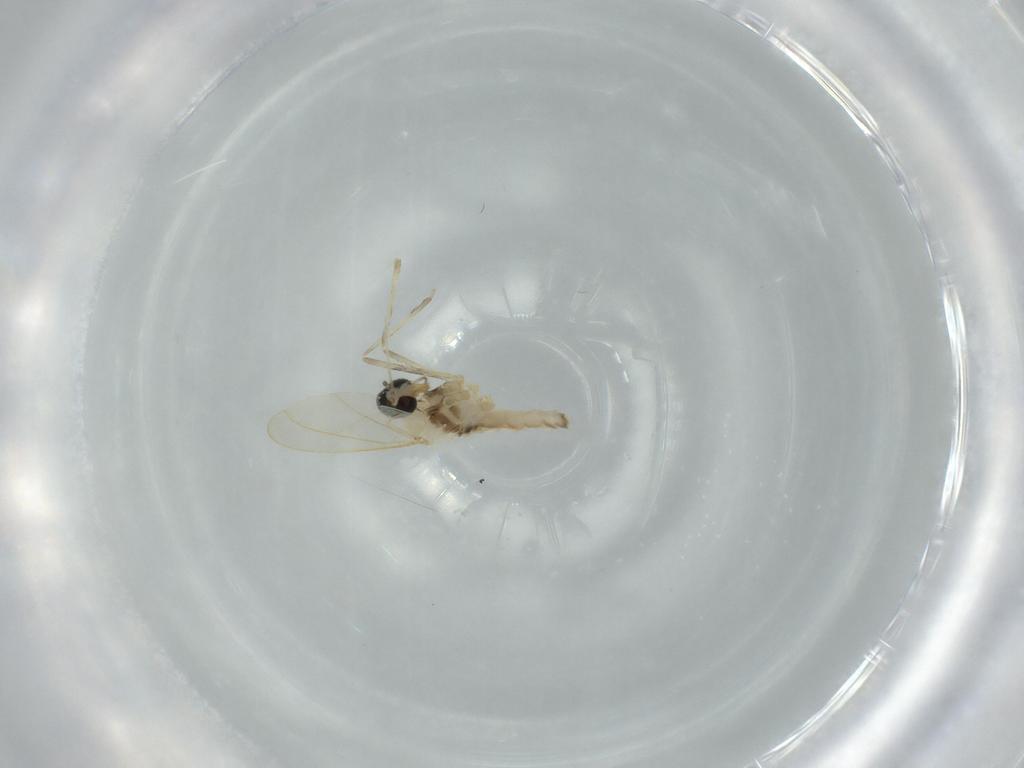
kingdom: Animalia
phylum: Arthropoda
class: Insecta
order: Diptera
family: Cecidomyiidae
